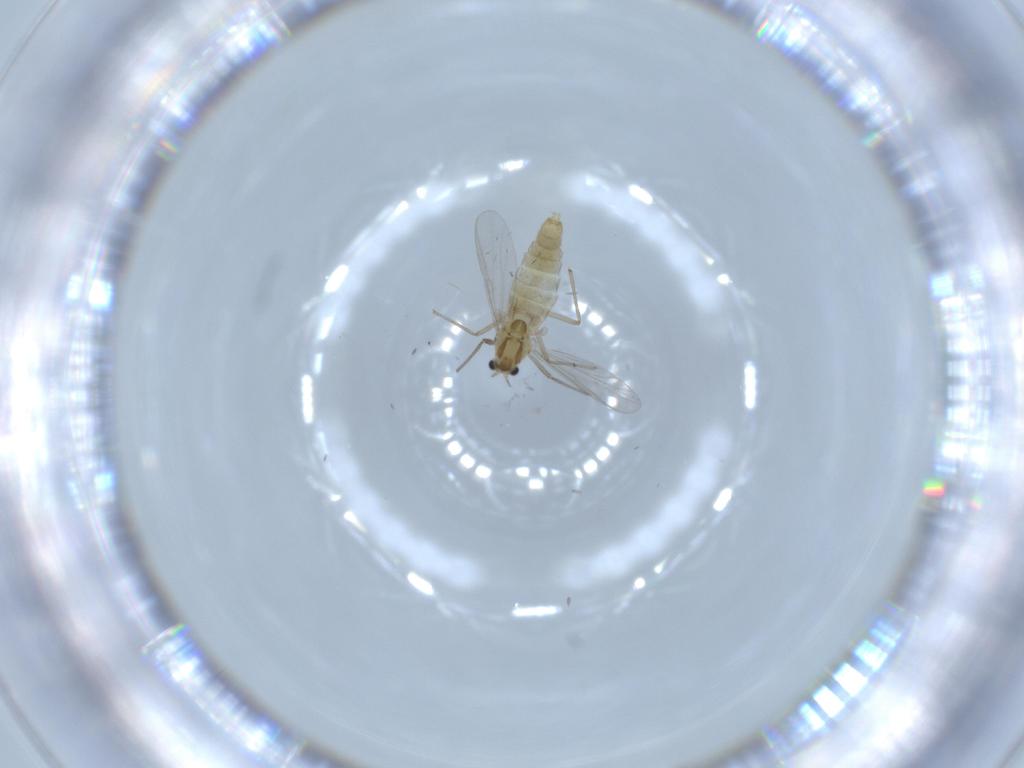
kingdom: Animalia
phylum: Arthropoda
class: Insecta
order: Diptera
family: Chironomidae
